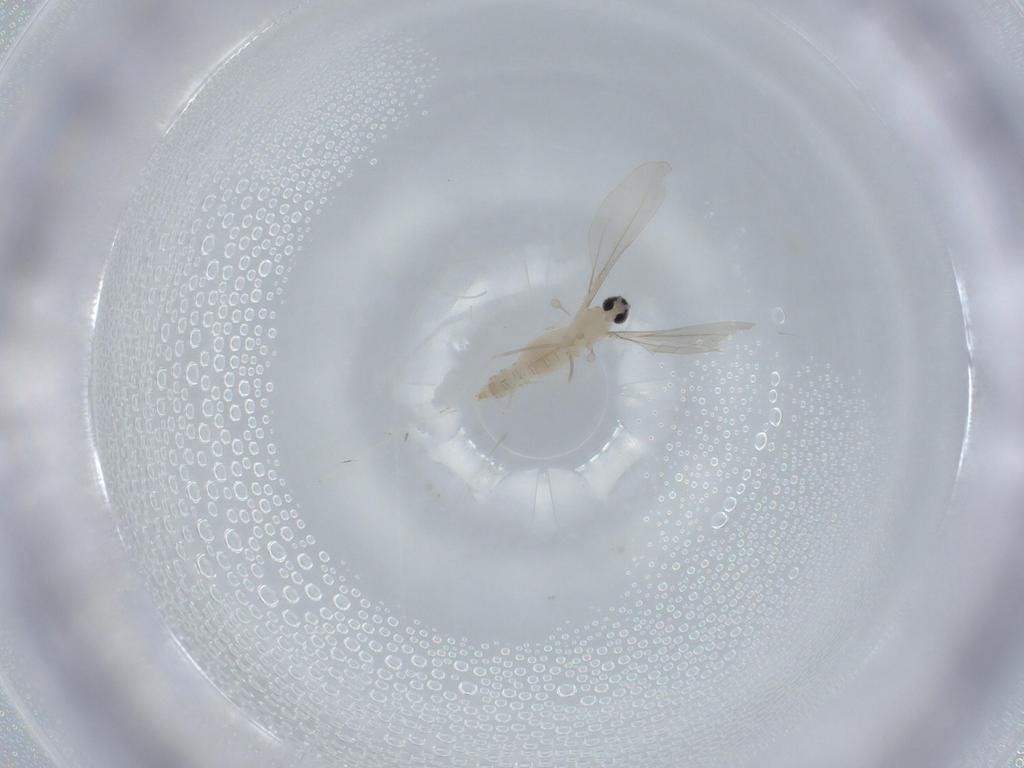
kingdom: Animalia
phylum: Arthropoda
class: Insecta
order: Diptera
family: Cecidomyiidae
